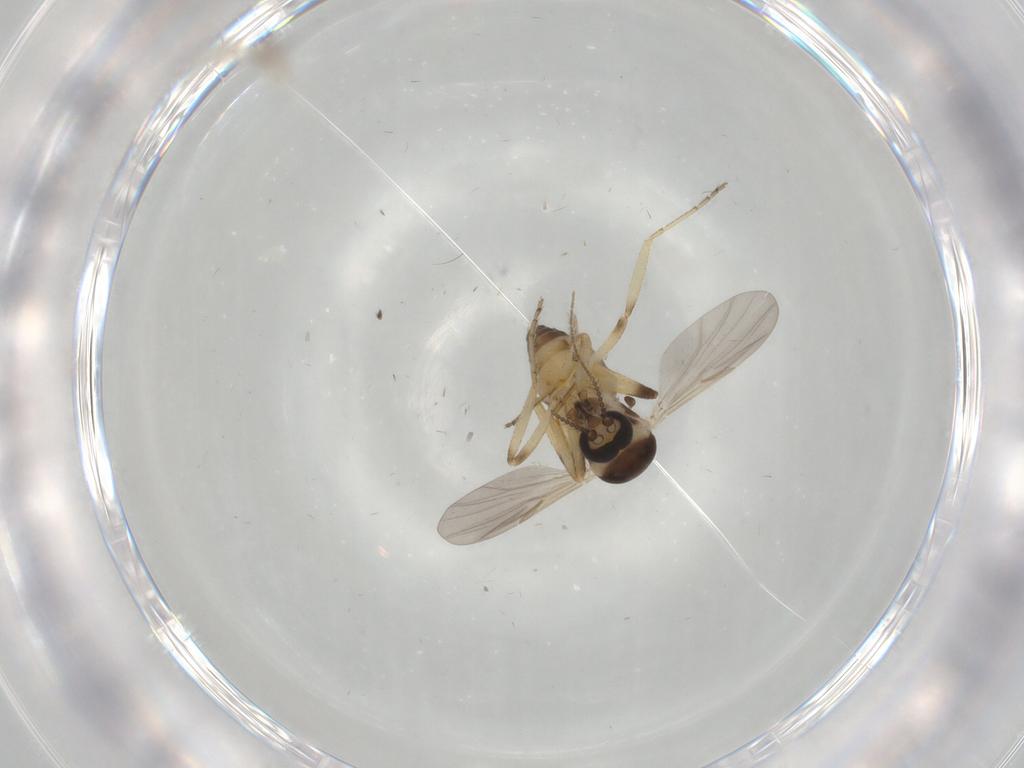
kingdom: Animalia
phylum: Arthropoda
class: Insecta
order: Diptera
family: Ceratopogonidae
